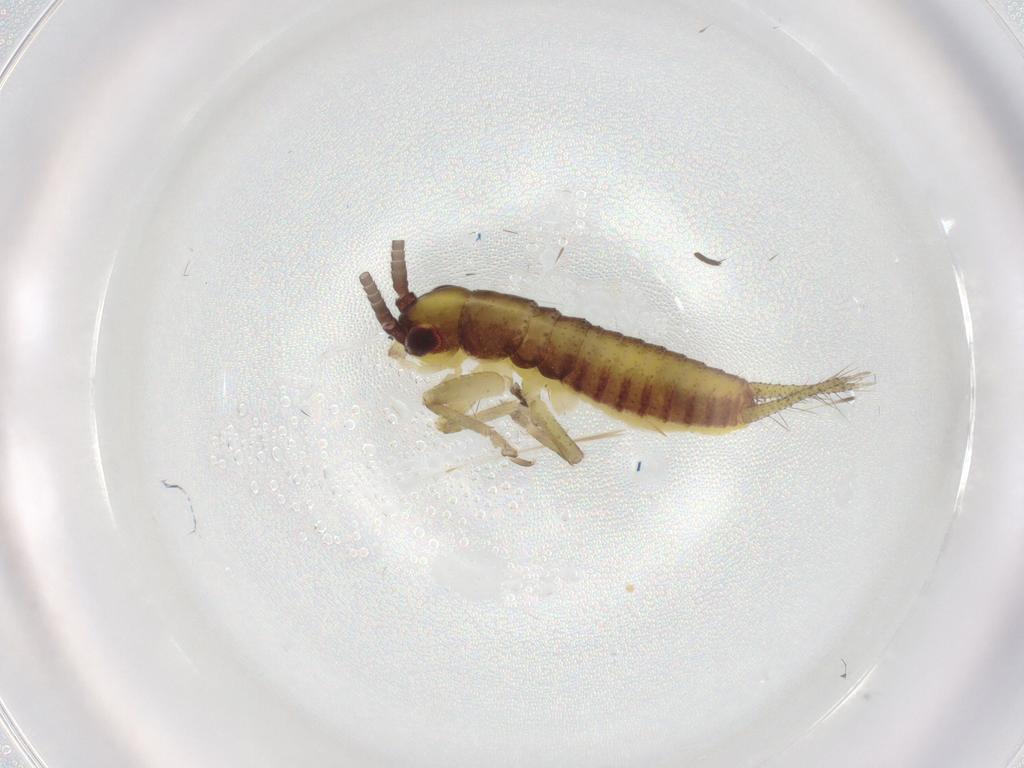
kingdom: Animalia
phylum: Arthropoda
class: Insecta
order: Orthoptera
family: Gryllidae
